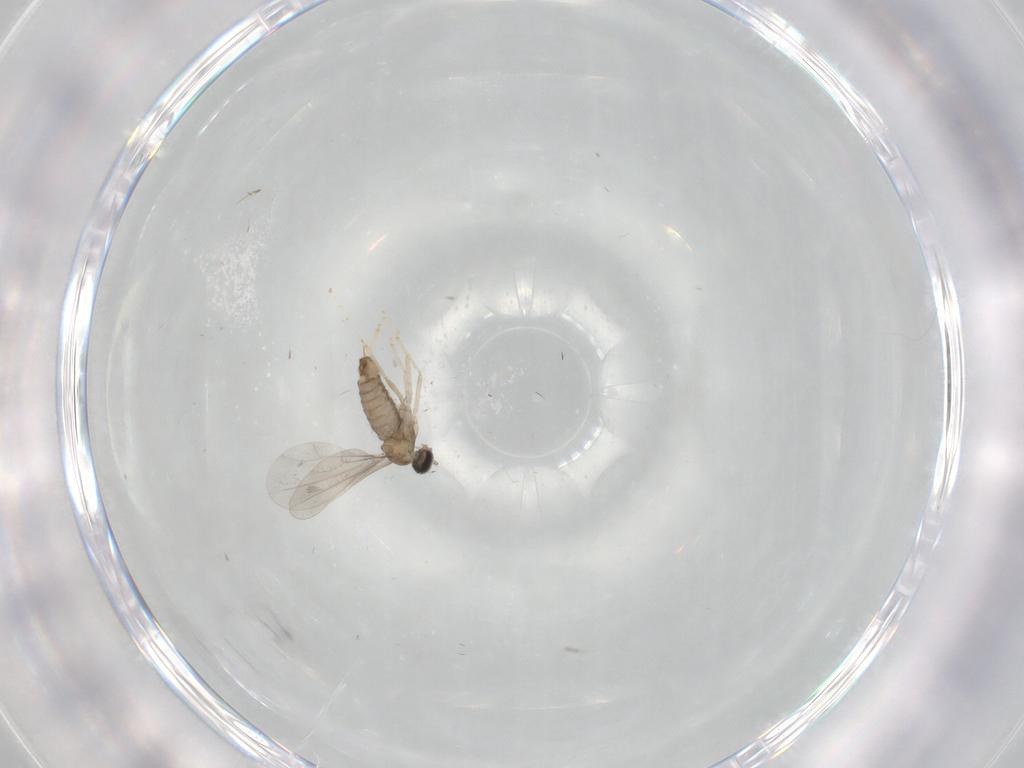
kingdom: Animalia
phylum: Arthropoda
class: Insecta
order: Diptera
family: Cecidomyiidae
